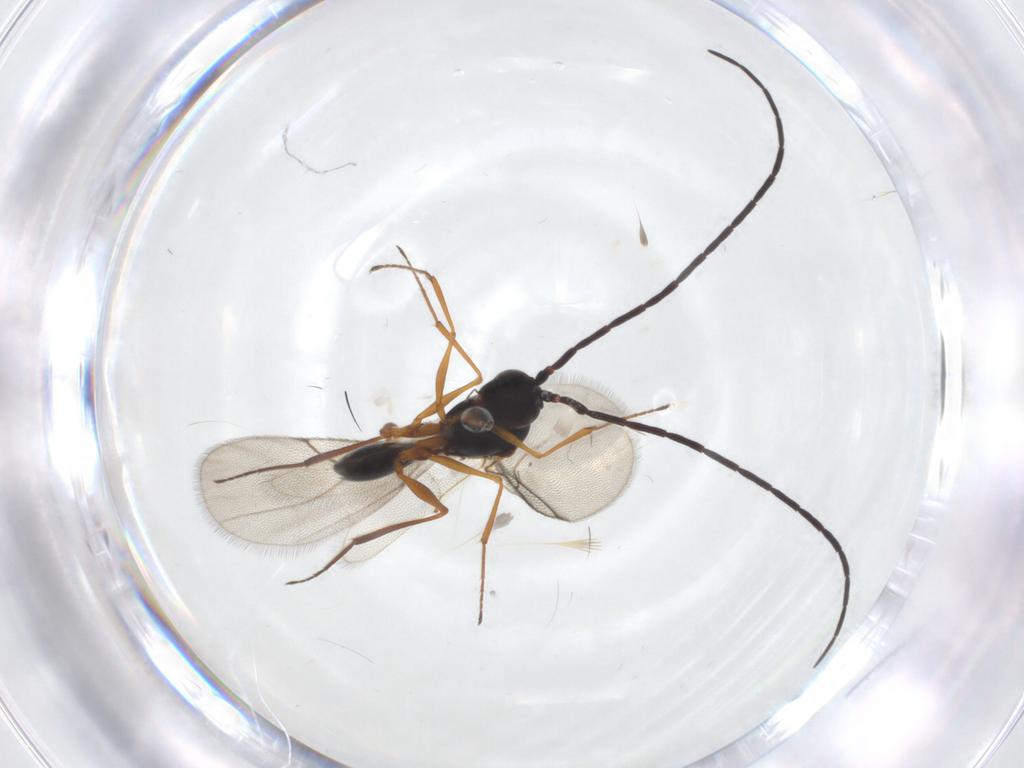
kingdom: Animalia
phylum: Arthropoda
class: Insecta
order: Hymenoptera
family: Figitidae
